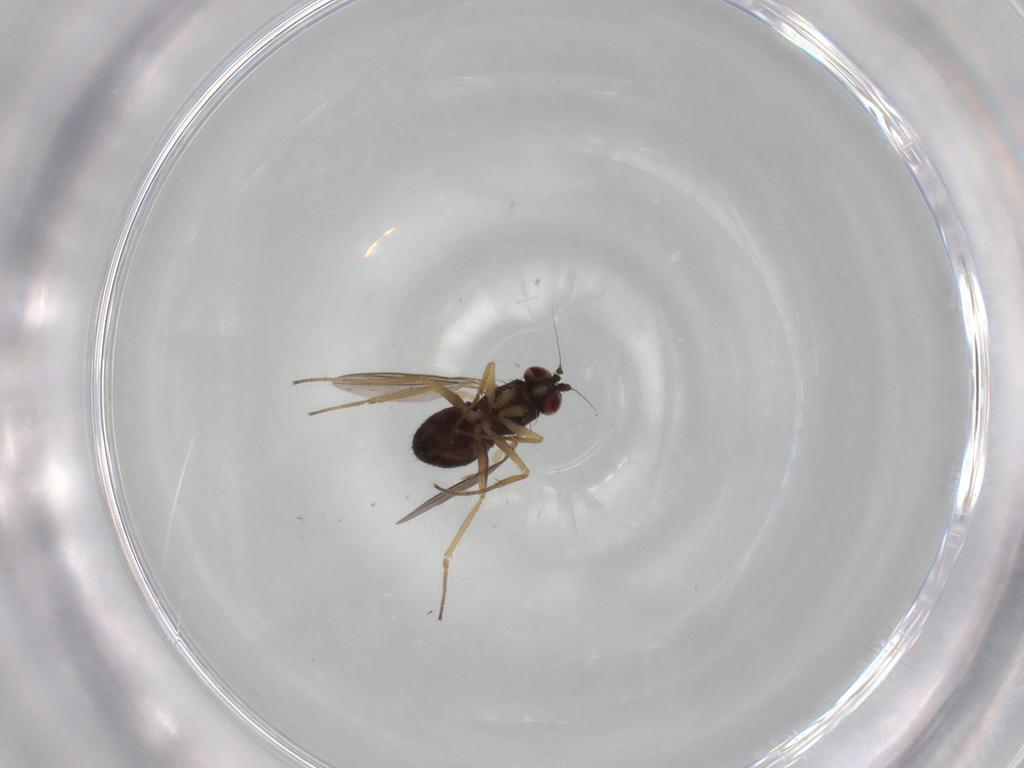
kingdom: Animalia
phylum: Arthropoda
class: Insecta
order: Diptera
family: Dolichopodidae
